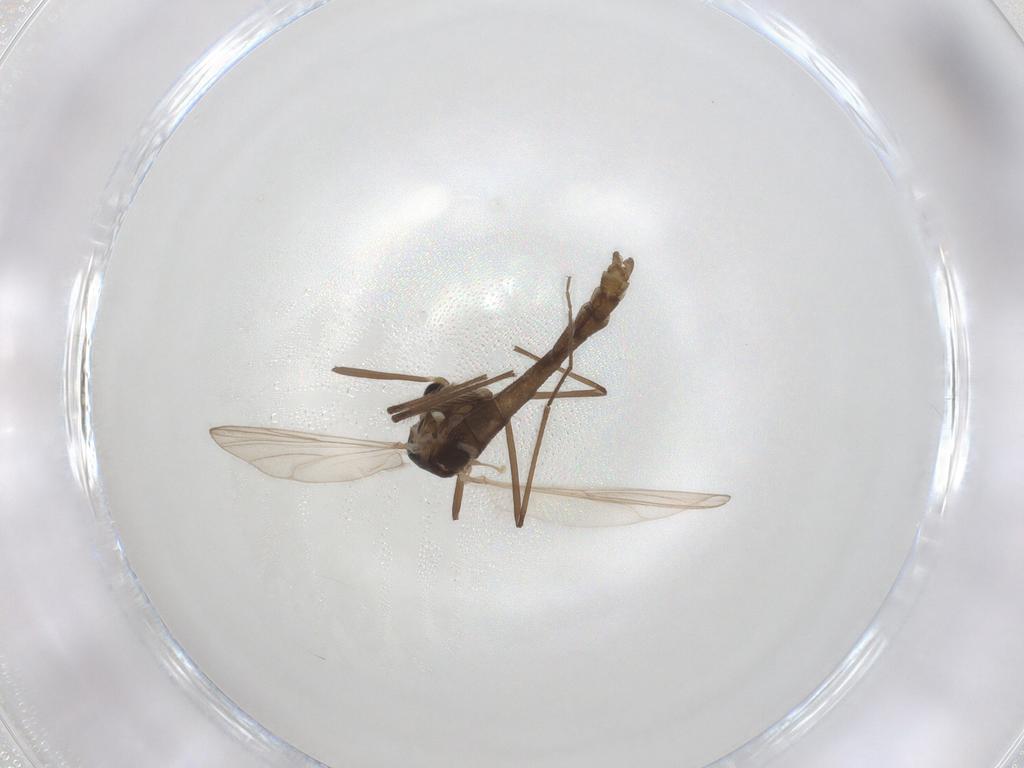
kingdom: Animalia
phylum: Arthropoda
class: Insecta
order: Diptera
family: Chironomidae
